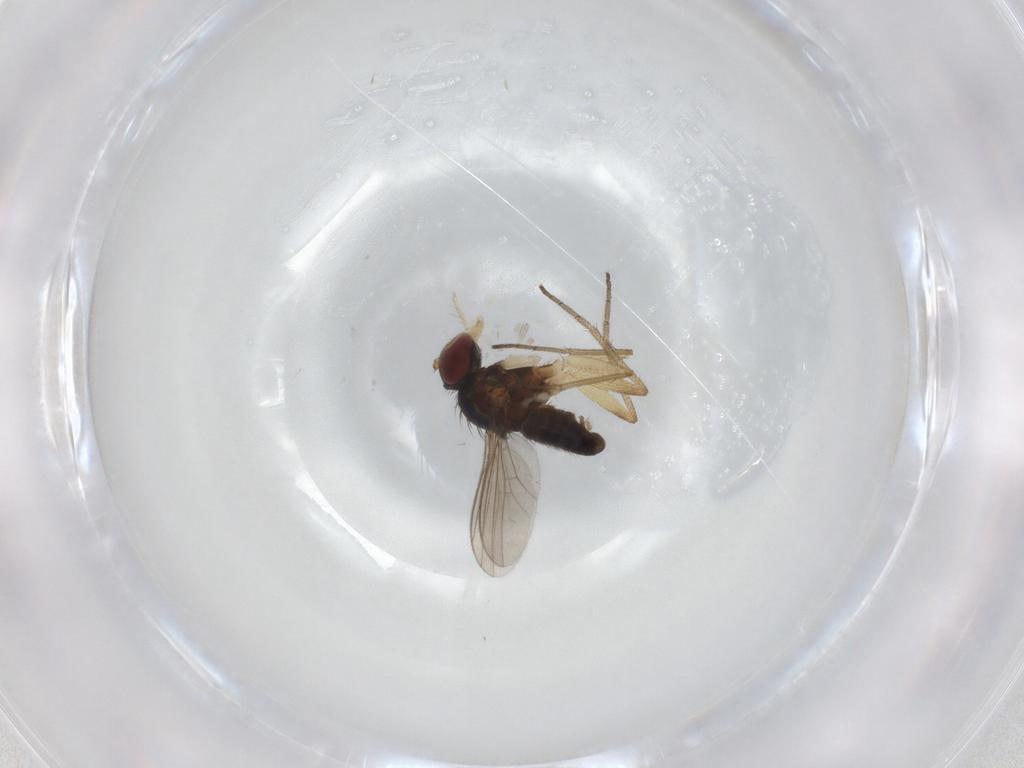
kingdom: Animalia
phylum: Arthropoda
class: Insecta
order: Diptera
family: Dolichopodidae
